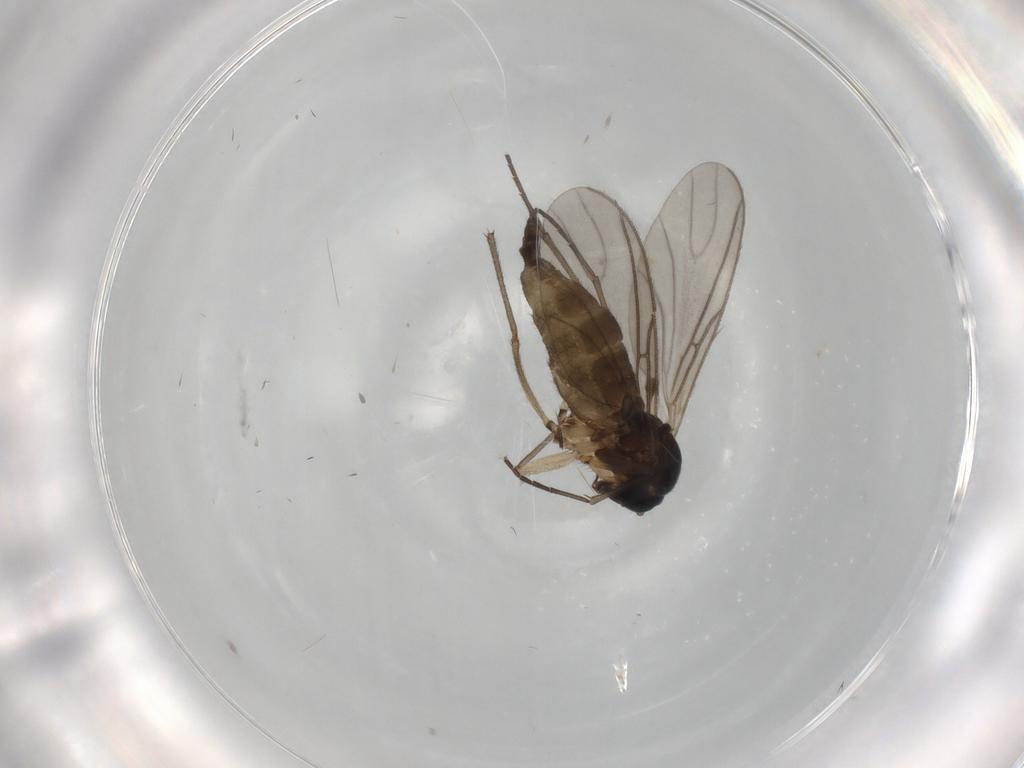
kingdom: Animalia
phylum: Arthropoda
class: Insecta
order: Diptera
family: Sciaridae
